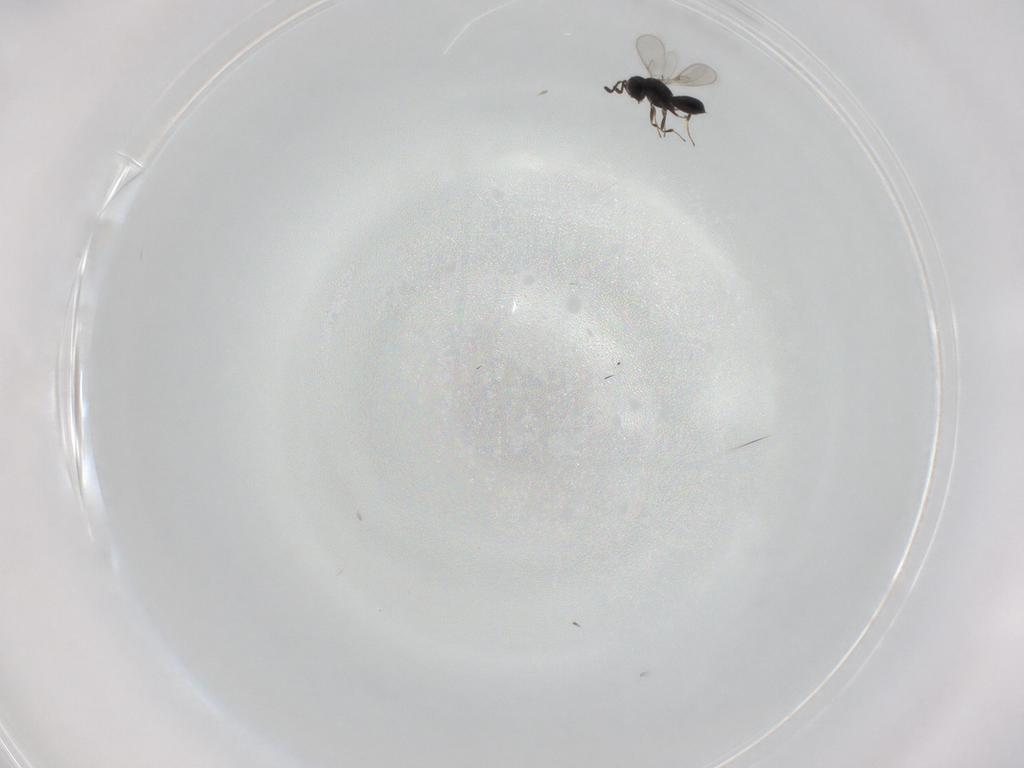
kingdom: Animalia
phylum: Arthropoda
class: Insecta
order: Hymenoptera
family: Scelionidae
